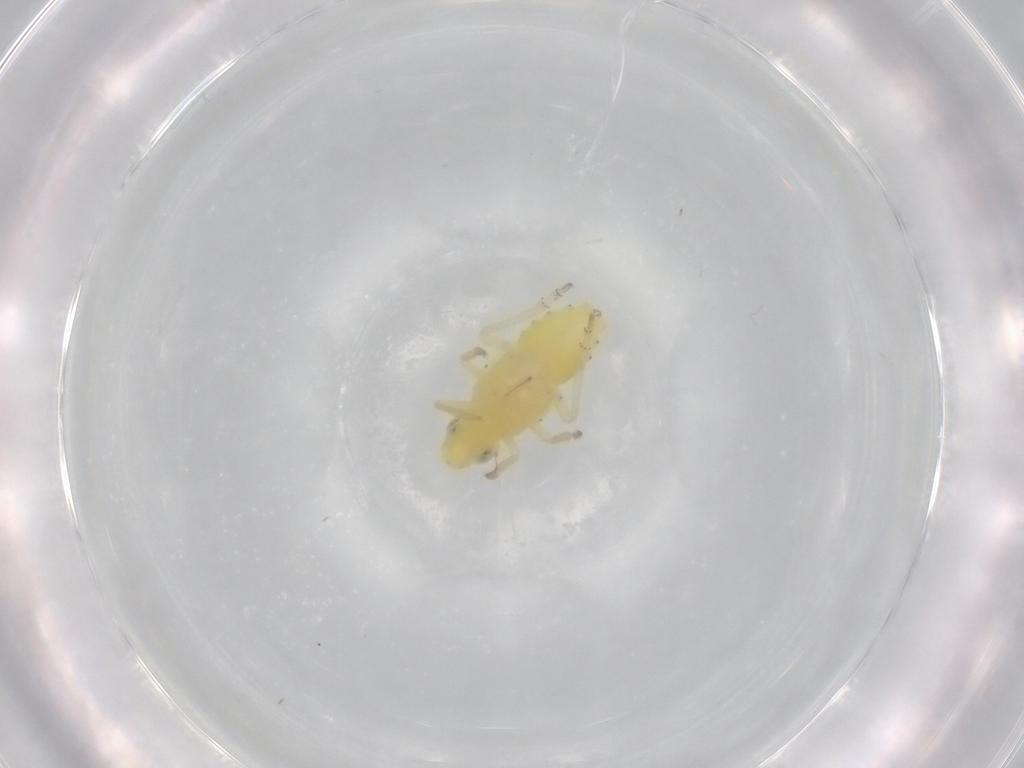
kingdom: Animalia
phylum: Arthropoda
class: Insecta
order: Hemiptera
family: Tropiduchidae
